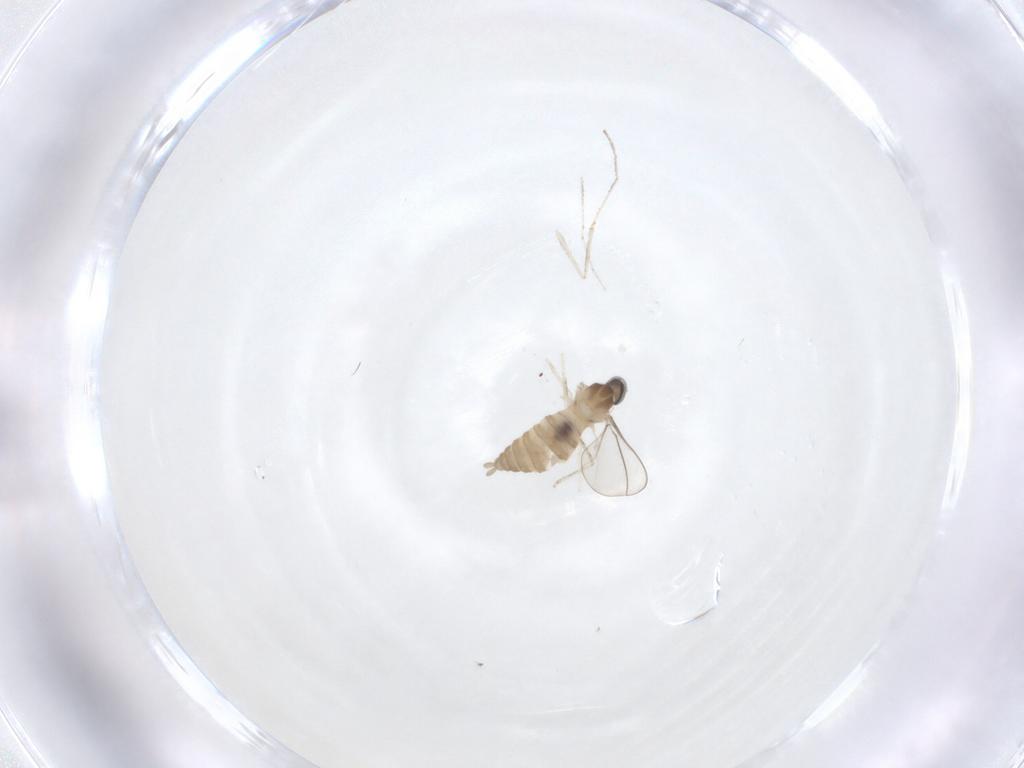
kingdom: Animalia
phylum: Arthropoda
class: Insecta
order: Diptera
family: Cecidomyiidae
